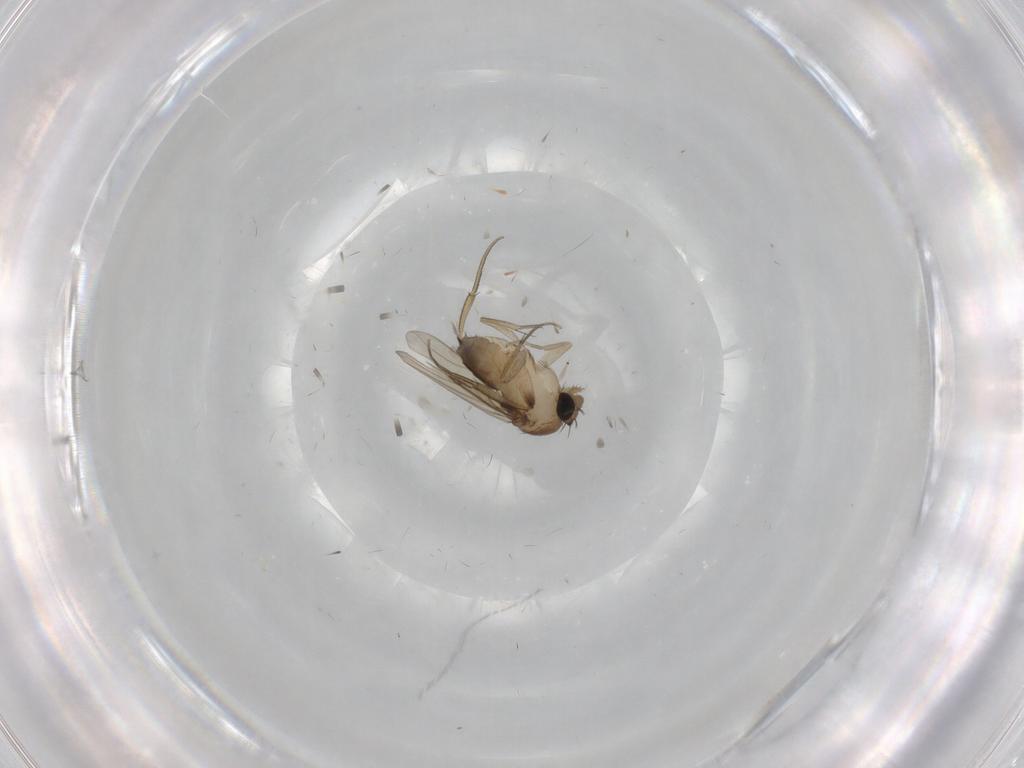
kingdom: Animalia
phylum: Arthropoda
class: Insecta
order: Diptera
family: Phoridae
